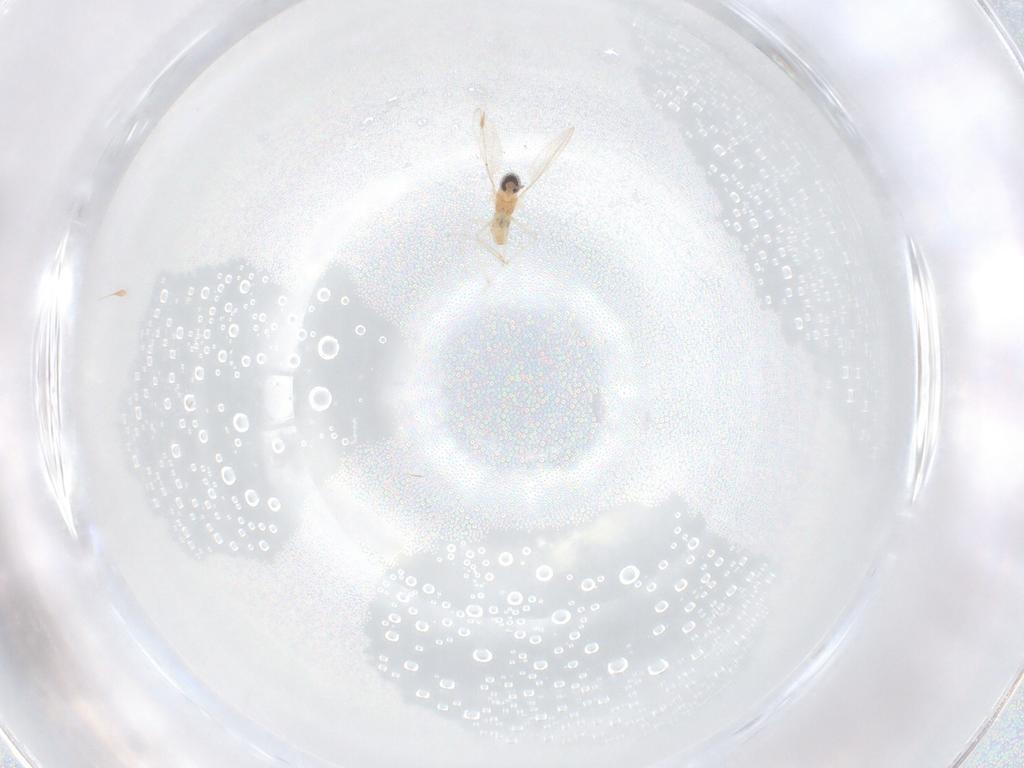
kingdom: Animalia
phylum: Arthropoda
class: Insecta
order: Diptera
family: Cecidomyiidae
